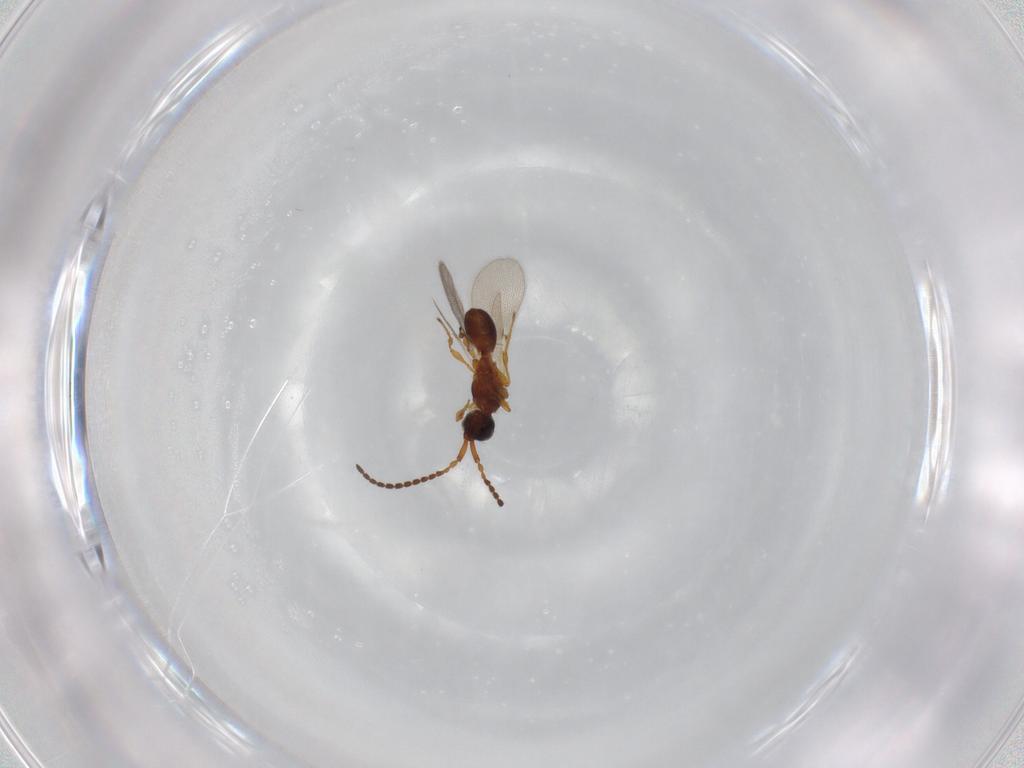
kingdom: Animalia
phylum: Arthropoda
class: Insecta
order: Hymenoptera
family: Diapriidae
